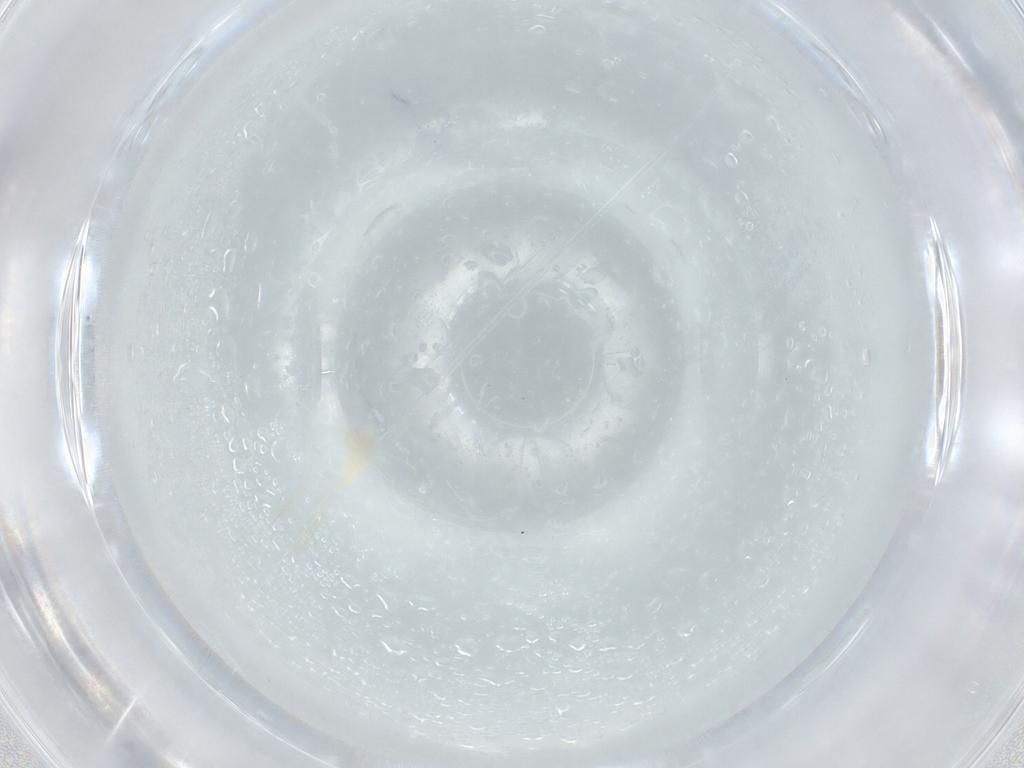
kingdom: Animalia
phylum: Arthropoda
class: Insecta
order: Diptera
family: Cecidomyiidae
